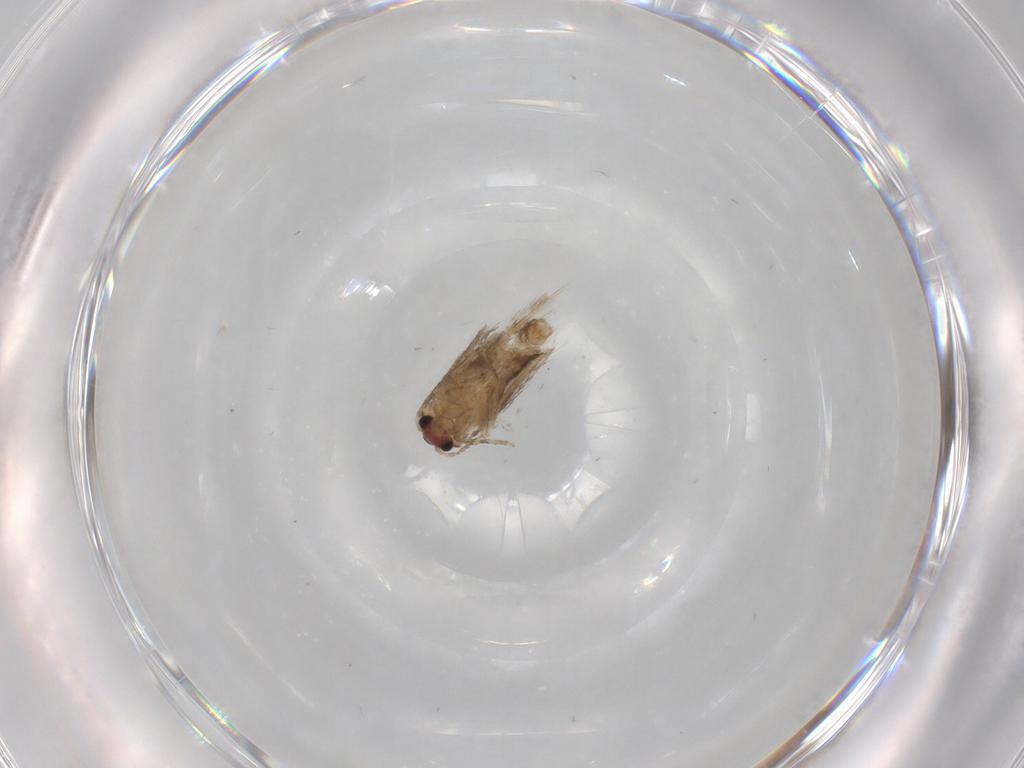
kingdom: Animalia
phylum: Arthropoda
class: Insecta
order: Lepidoptera
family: Nepticulidae
